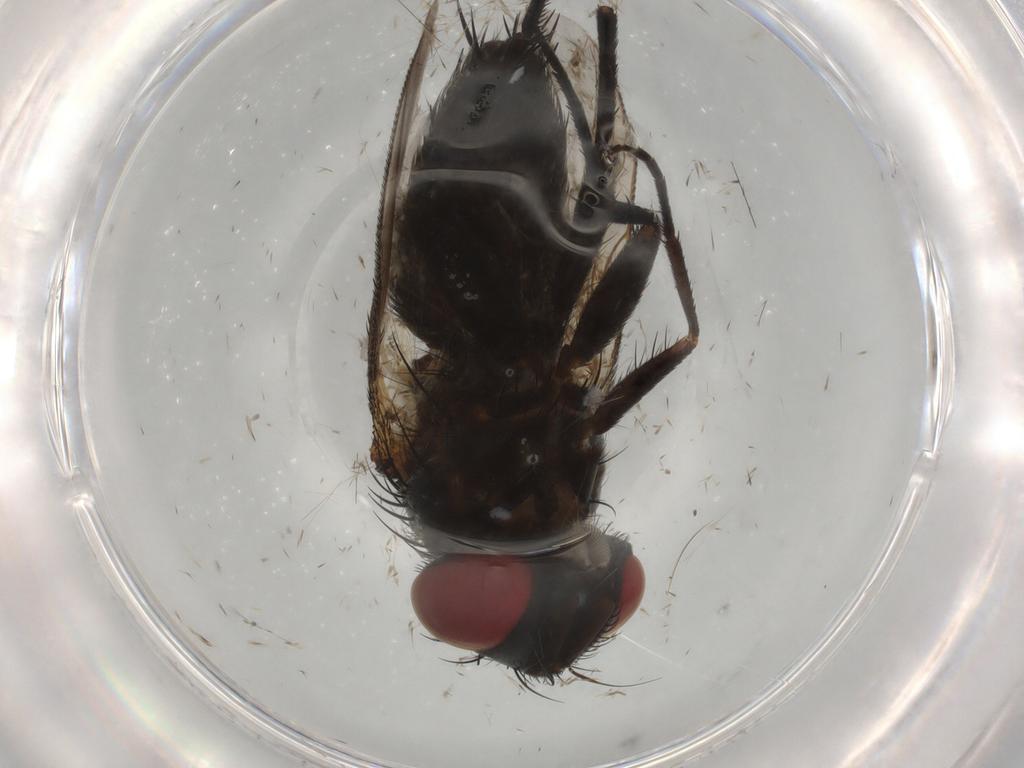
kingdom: Animalia
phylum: Arthropoda
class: Insecta
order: Diptera
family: Sarcophagidae
